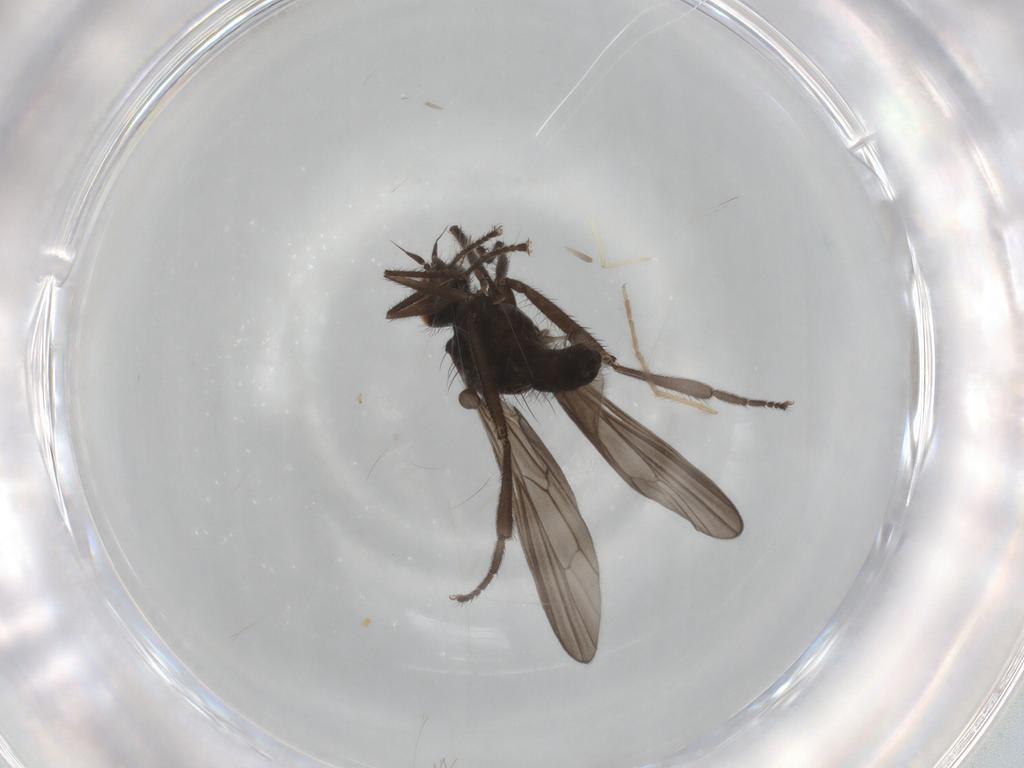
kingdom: Animalia
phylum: Arthropoda
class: Insecta
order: Diptera
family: Hybotidae
